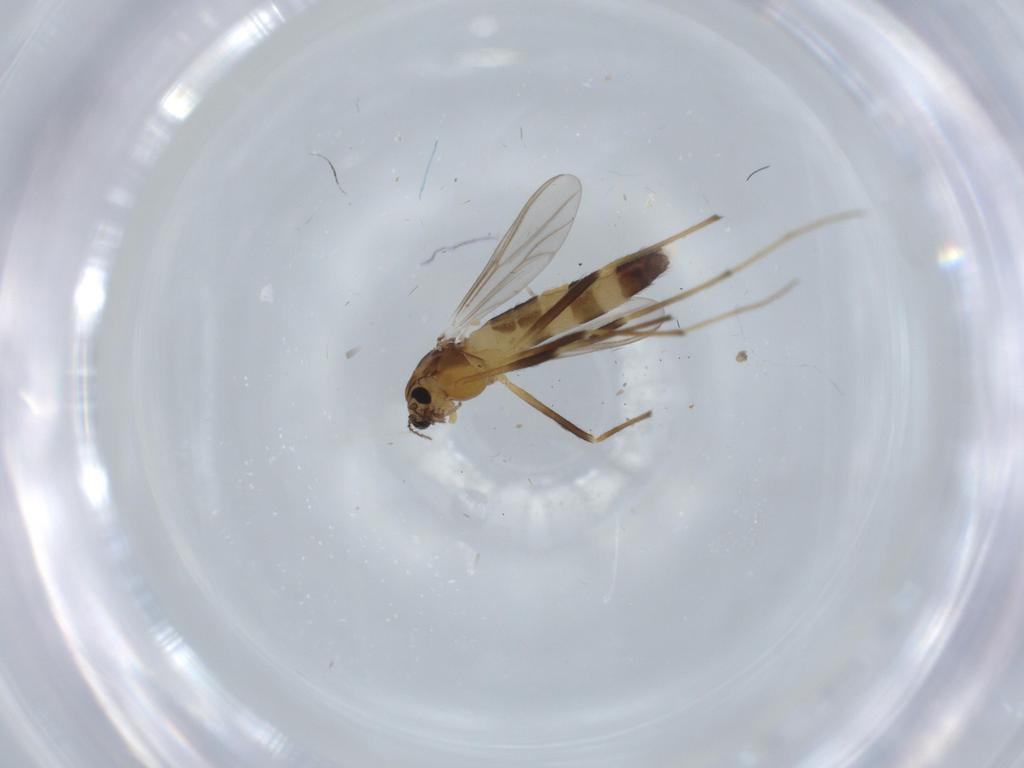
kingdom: Animalia
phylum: Arthropoda
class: Insecta
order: Diptera
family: Chironomidae
